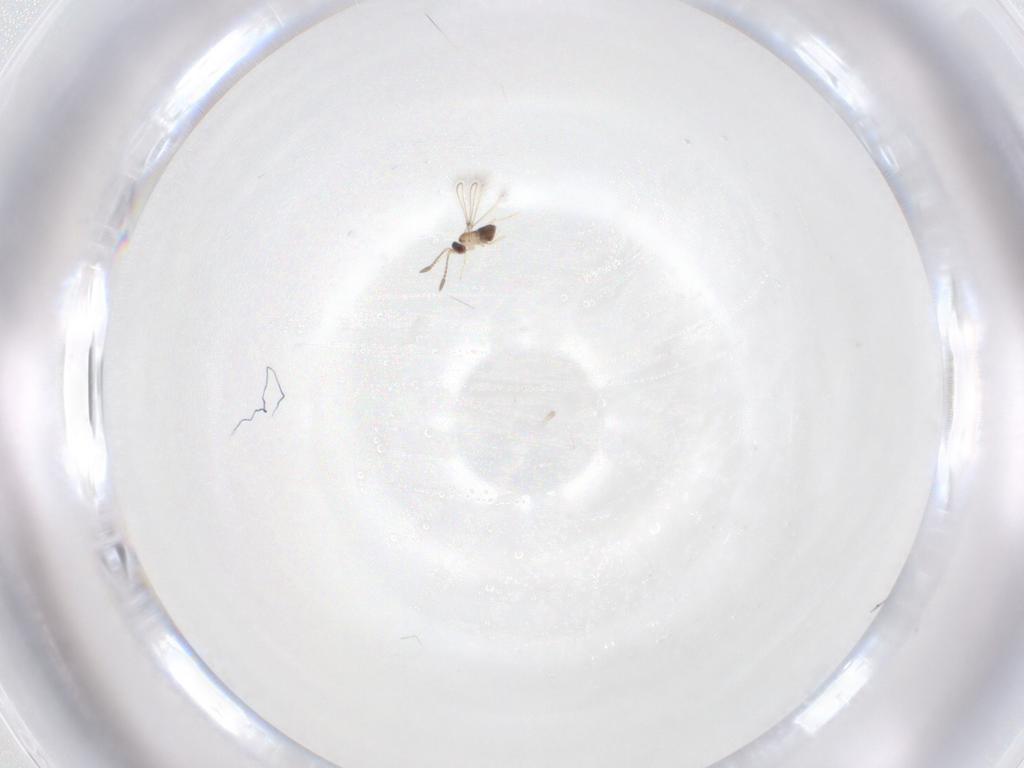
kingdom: Animalia
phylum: Arthropoda
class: Insecta
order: Hymenoptera
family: Mymaridae
